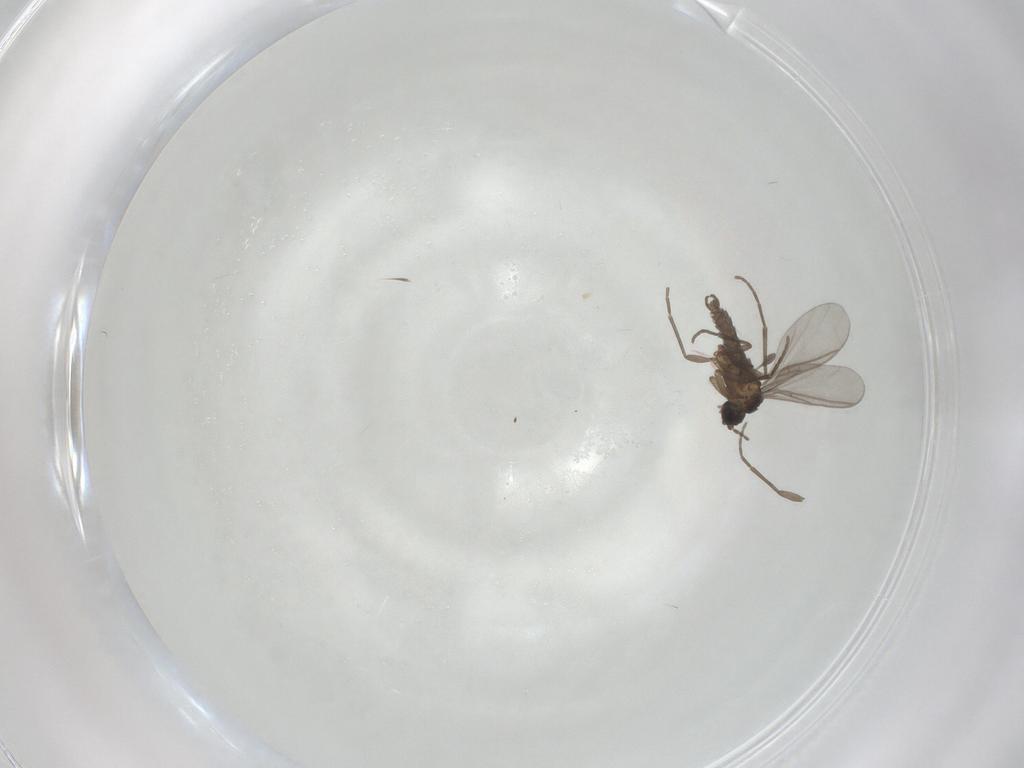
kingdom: Animalia
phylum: Arthropoda
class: Insecta
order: Diptera
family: Sciaridae
